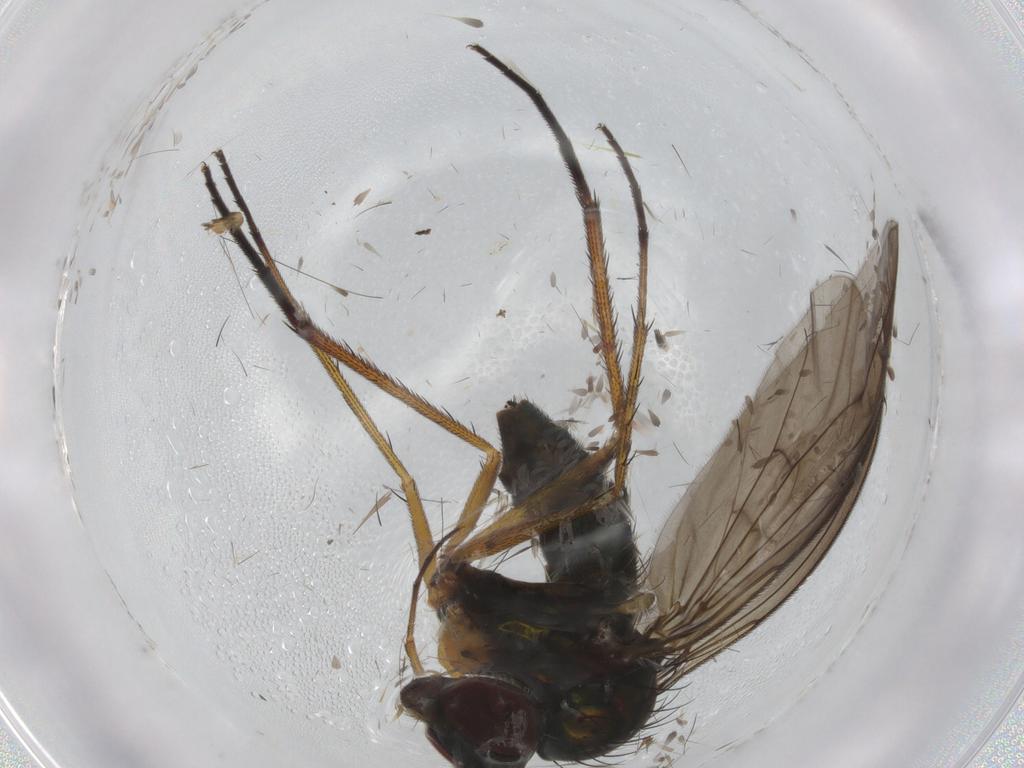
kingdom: Animalia
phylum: Arthropoda
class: Insecta
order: Diptera
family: Dolichopodidae
